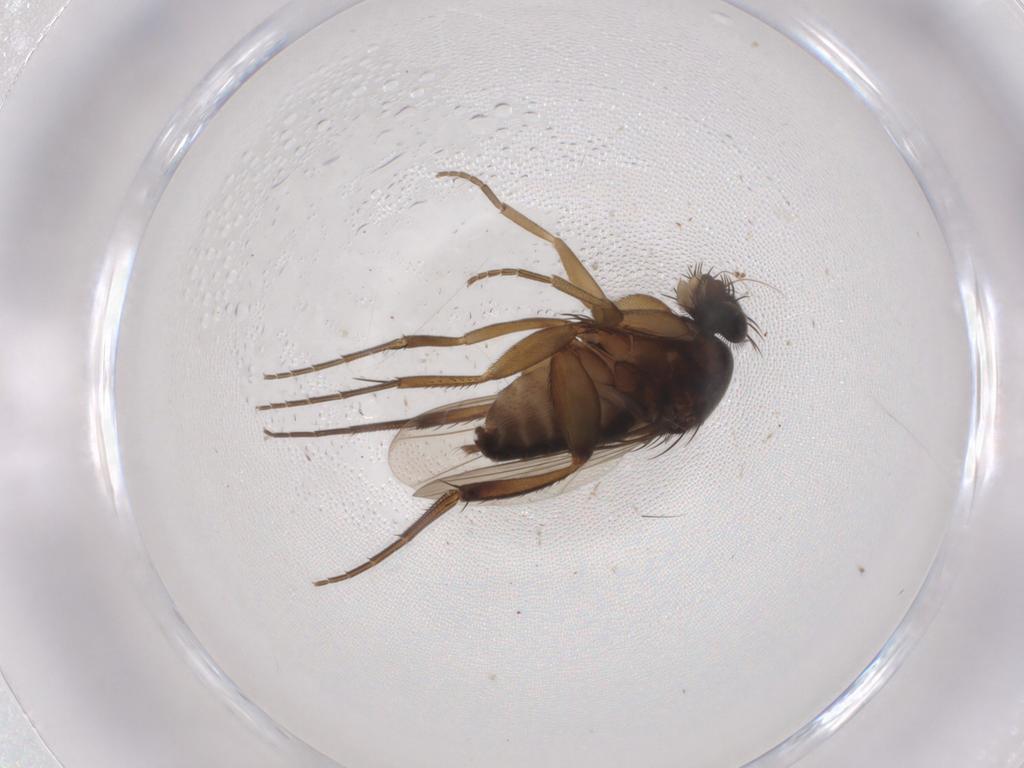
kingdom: Animalia
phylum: Arthropoda
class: Insecta
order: Diptera
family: Phoridae
